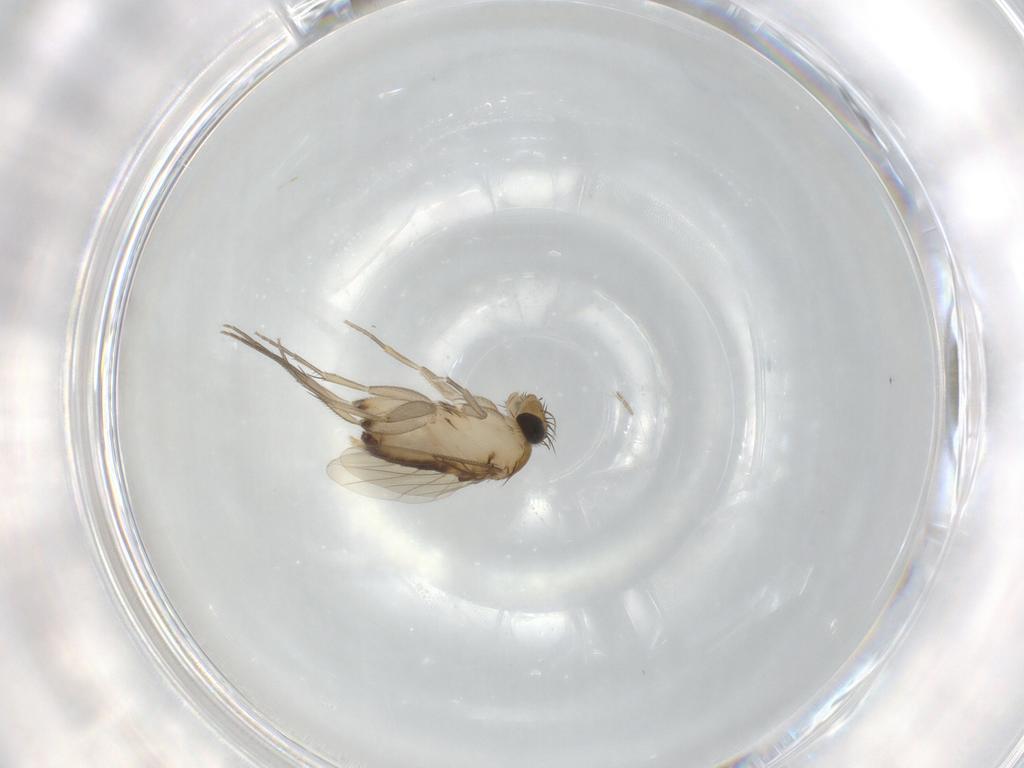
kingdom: Animalia
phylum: Arthropoda
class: Insecta
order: Diptera
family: Phoridae
